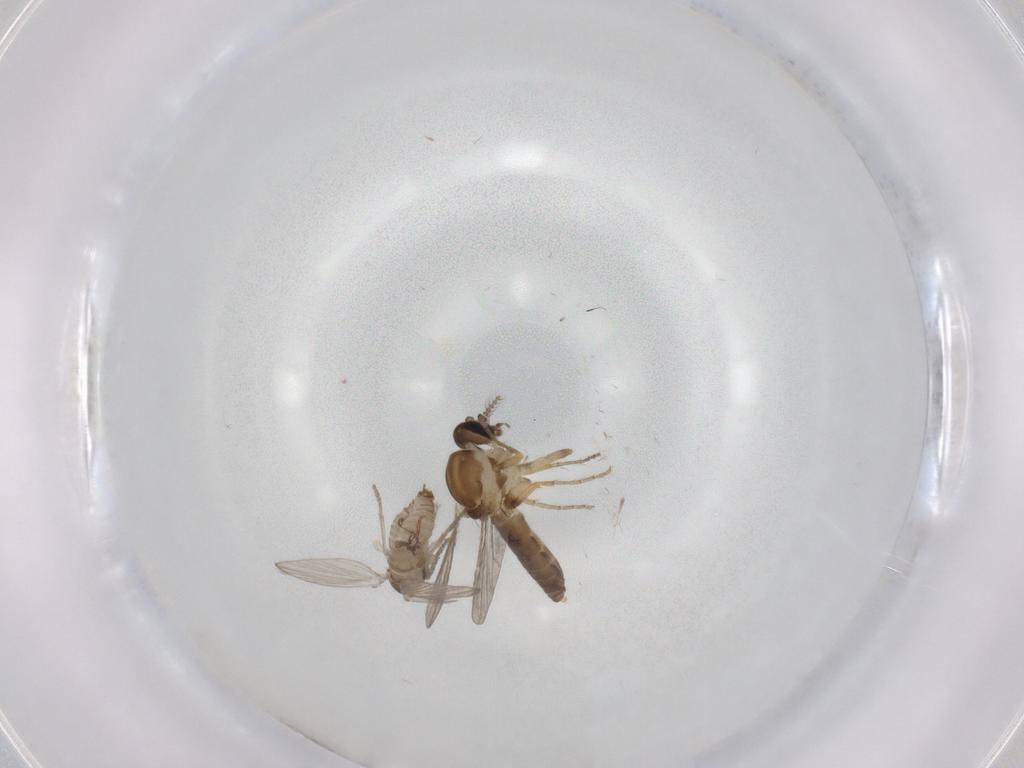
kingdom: Animalia
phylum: Arthropoda
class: Insecta
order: Diptera
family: Psychodidae
